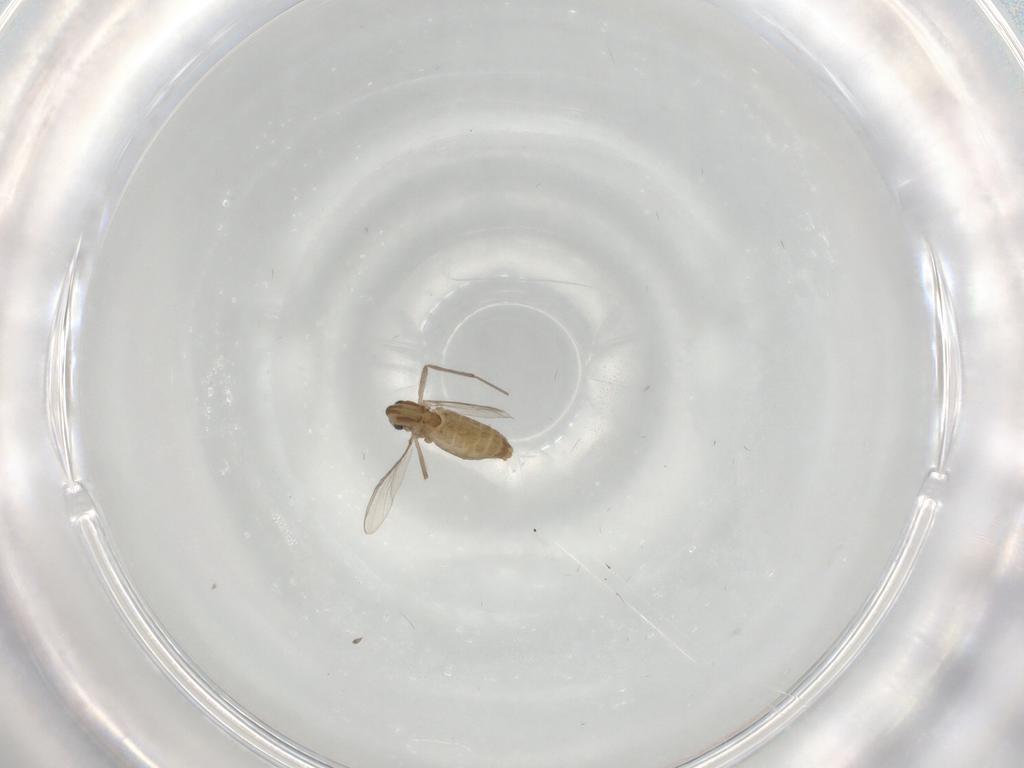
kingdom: Animalia
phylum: Arthropoda
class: Insecta
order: Diptera
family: Chironomidae
